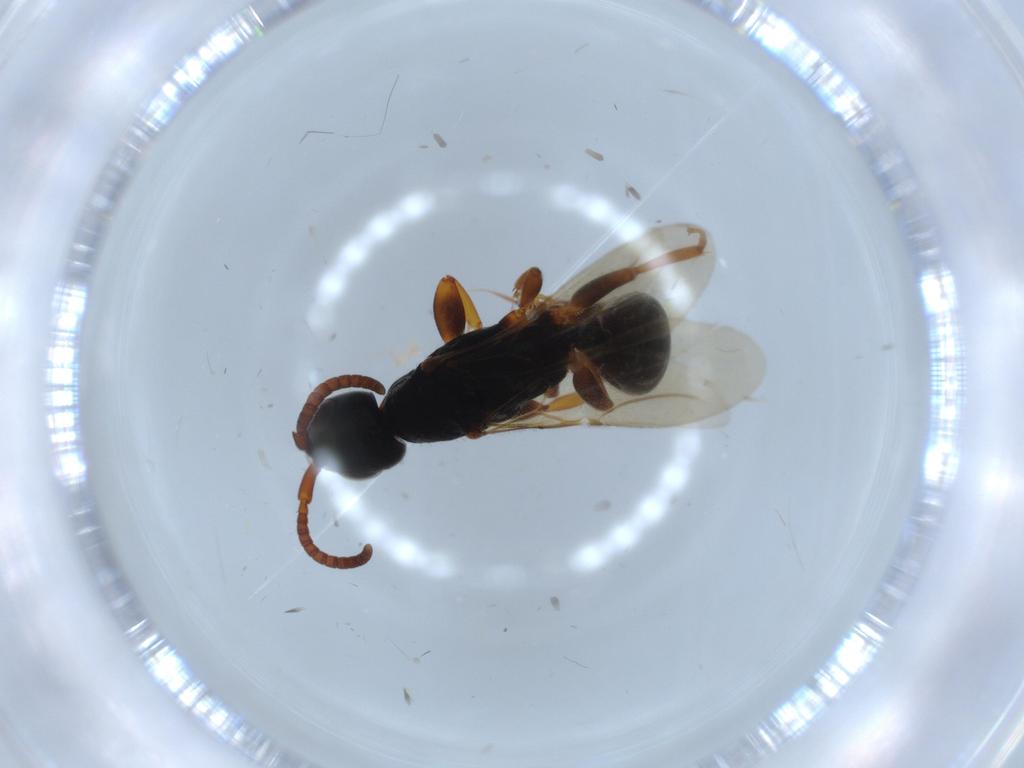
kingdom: Animalia
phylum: Arthropoda
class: Insecta
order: Hymenoptera
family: Bethylidae
